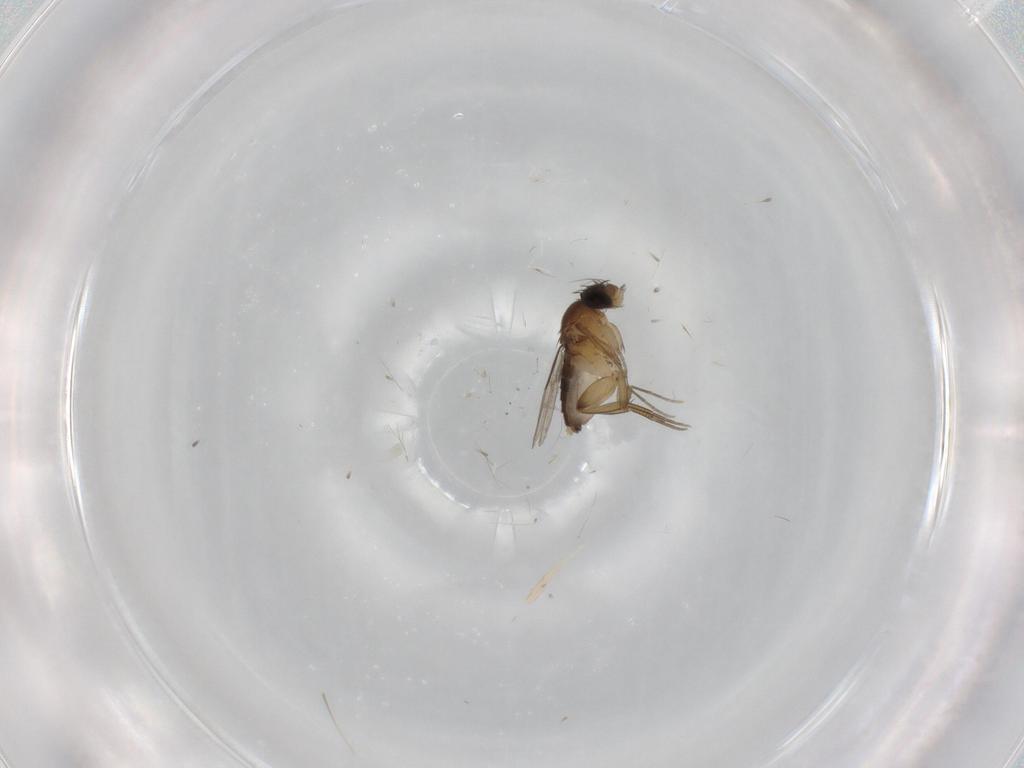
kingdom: Animalia
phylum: Arthropoda
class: Insecta
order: Diptera
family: Phoridae
